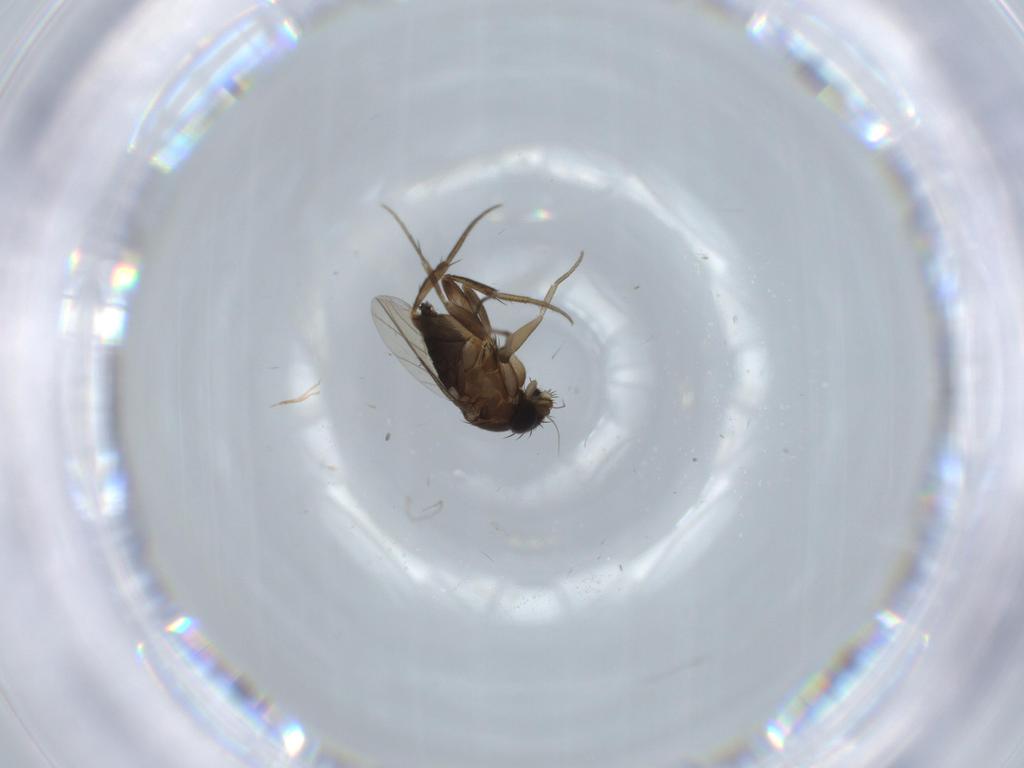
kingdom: Animalia
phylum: Arthropoda
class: Insecta
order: Diptera
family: Phoridae
